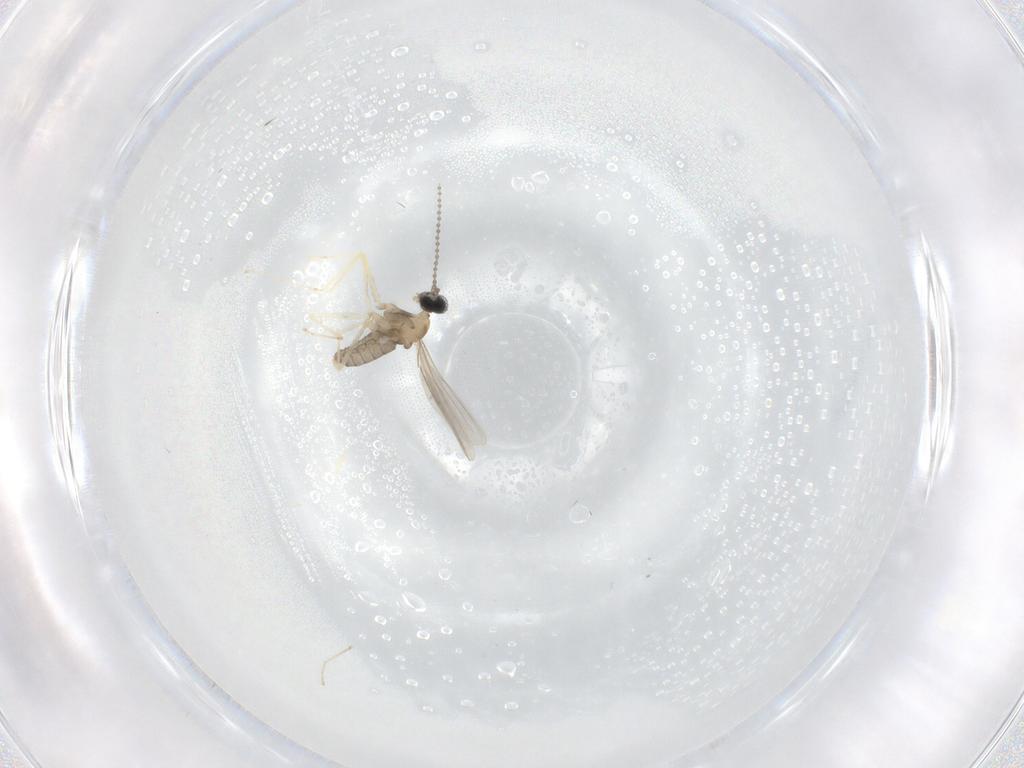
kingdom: Animalia
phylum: Arthropoda
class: Insecta
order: Diptera
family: Cecidomyiidae
